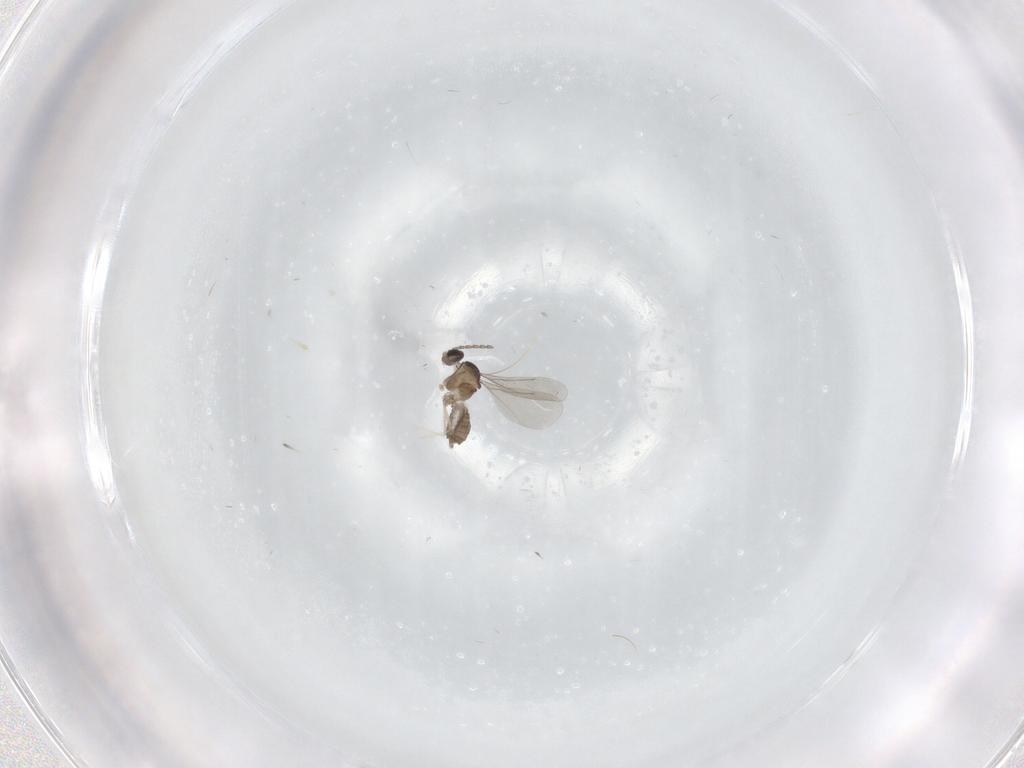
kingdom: Animalia
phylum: Arthropoda
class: Insecta
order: Diptera
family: Cecidomyiidae
